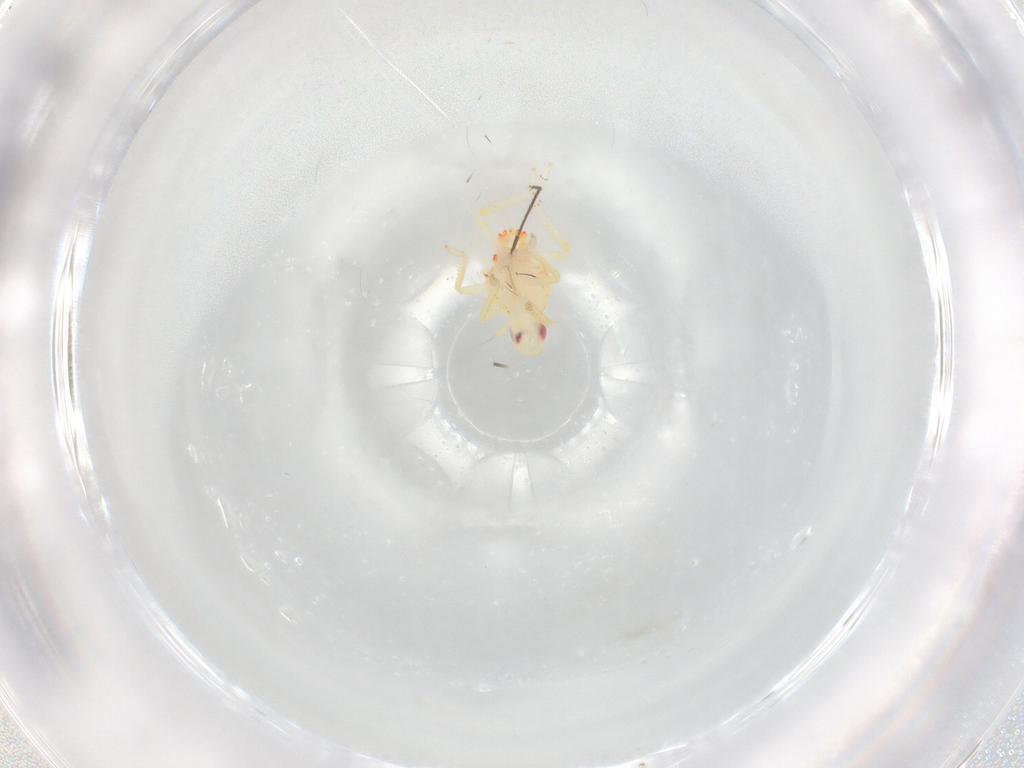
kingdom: Animalia
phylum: Arthropoda
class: Insecta
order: Hemiptera
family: Tropiduchidae
